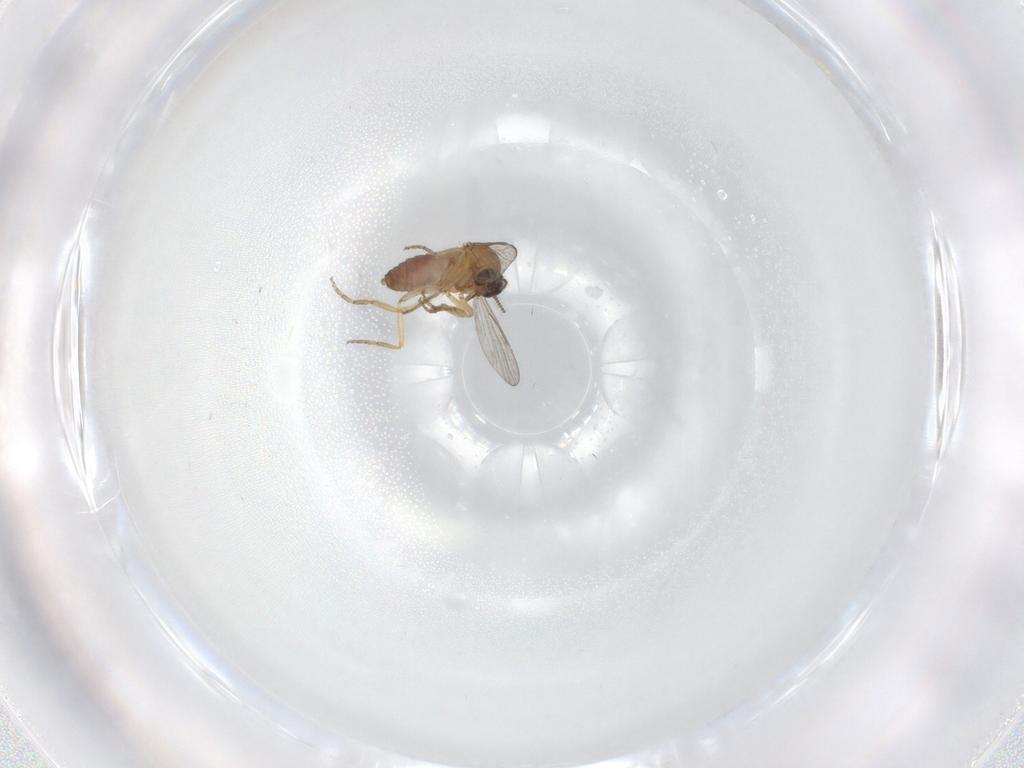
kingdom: Animalia
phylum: Arthropoda
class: Insecta
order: Diptera
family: Chironomidae
